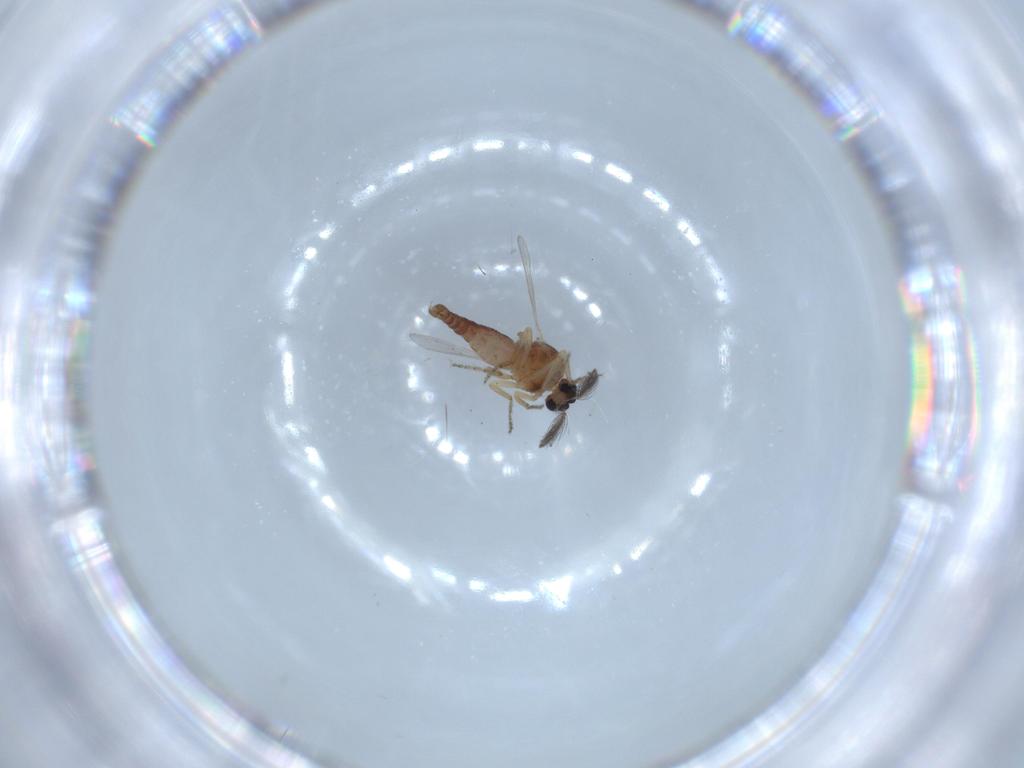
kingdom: Animalia
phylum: Arthropoda
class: Insecta
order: Diptera
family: Ceratopogonidae
